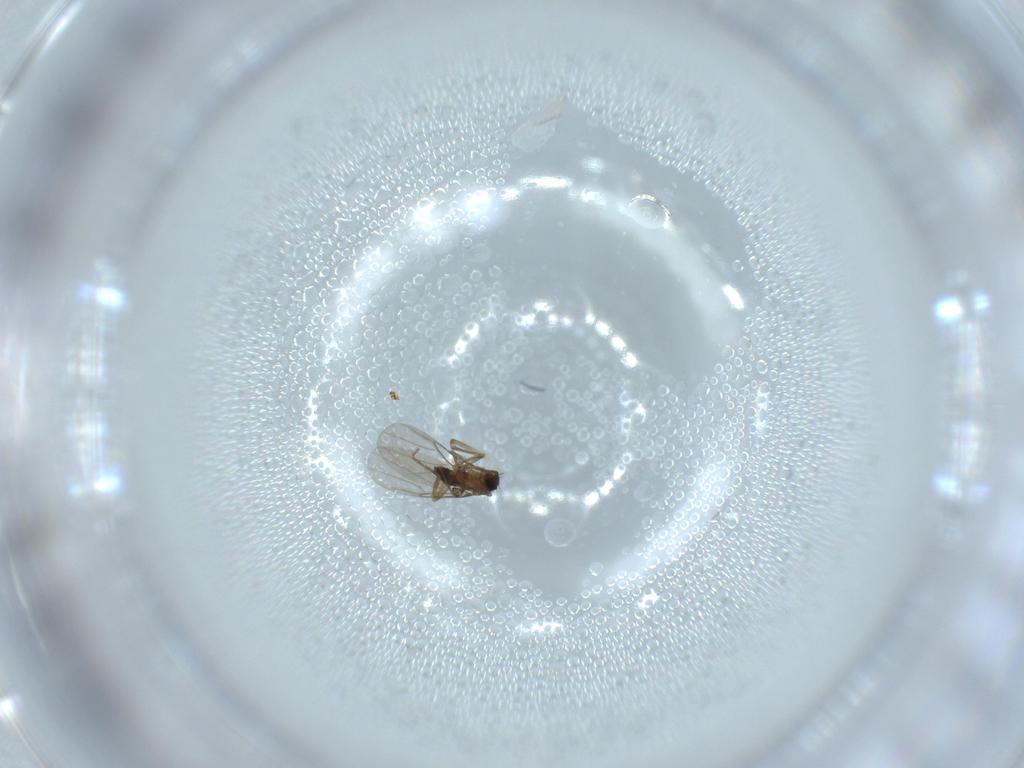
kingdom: Animalia
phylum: Arthropoda
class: Insecta
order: Diptera
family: Phoridae
